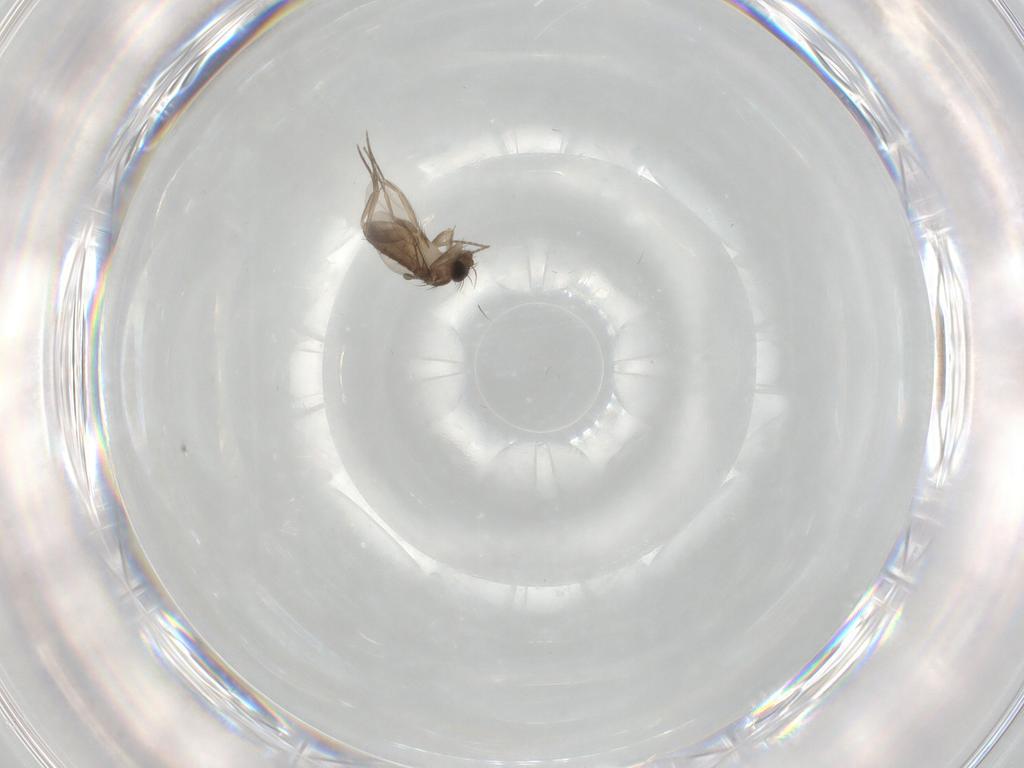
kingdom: Animalia
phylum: Arthropoda
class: Insecta
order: Diptera
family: Phoridae
